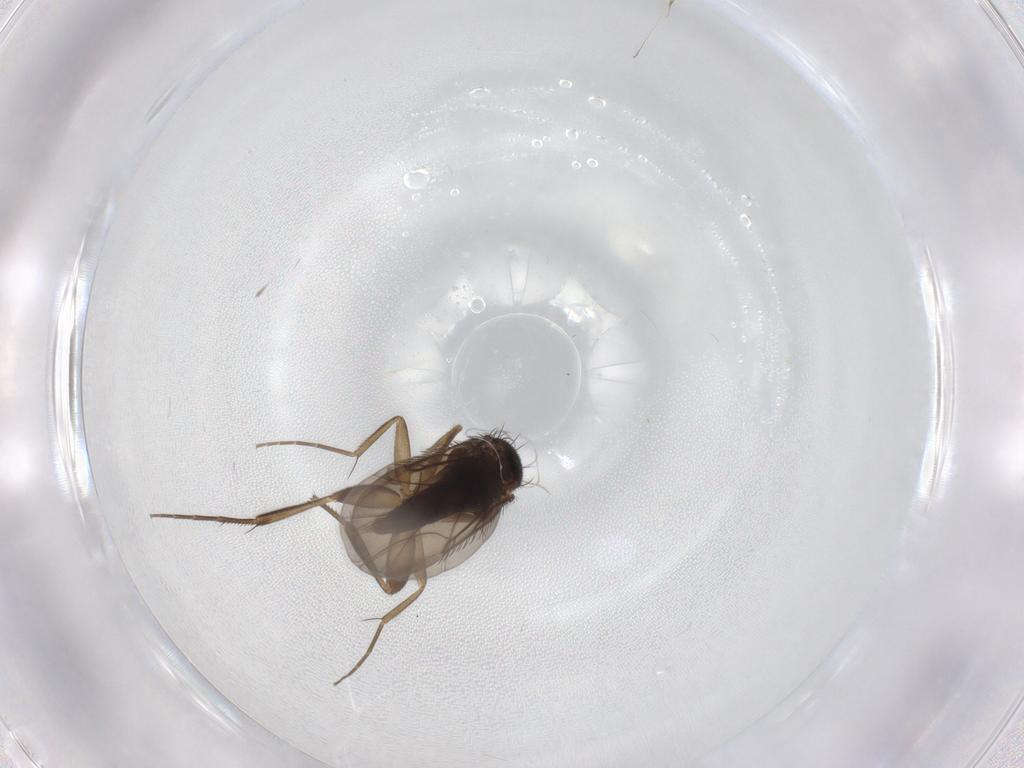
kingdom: Animalia
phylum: Arthropoda
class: Insecta
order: Diptera
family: Phoridae
